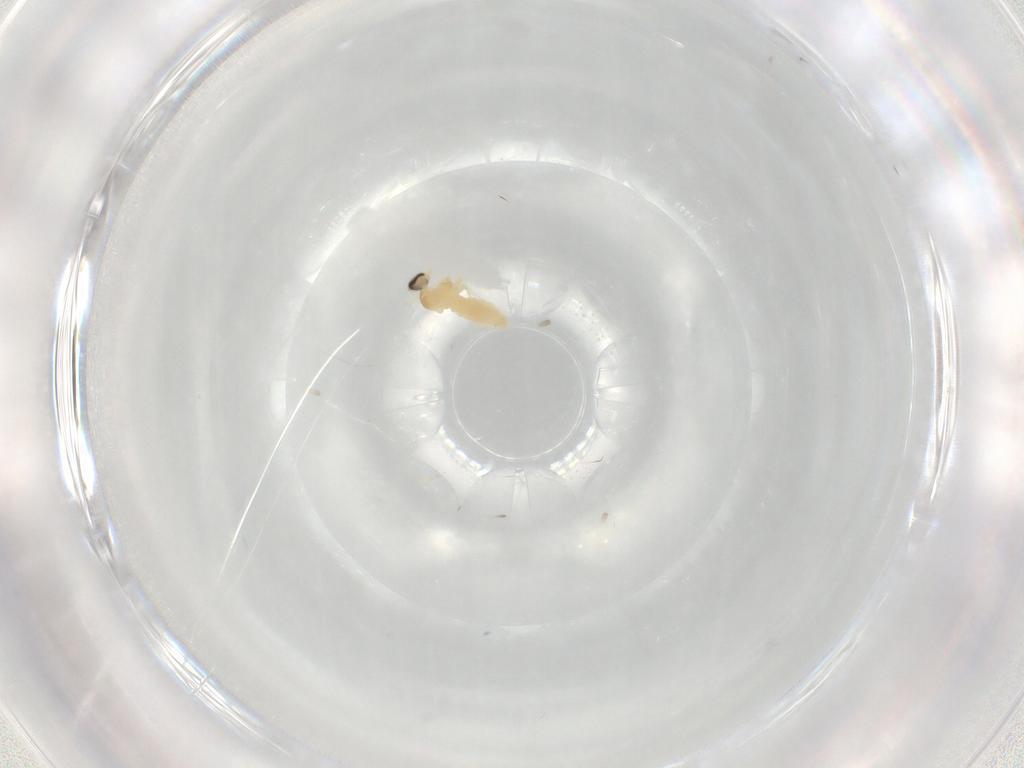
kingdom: Animalia
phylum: Arthropoda
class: Insecta
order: Diptera
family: Cecidomyiidae
